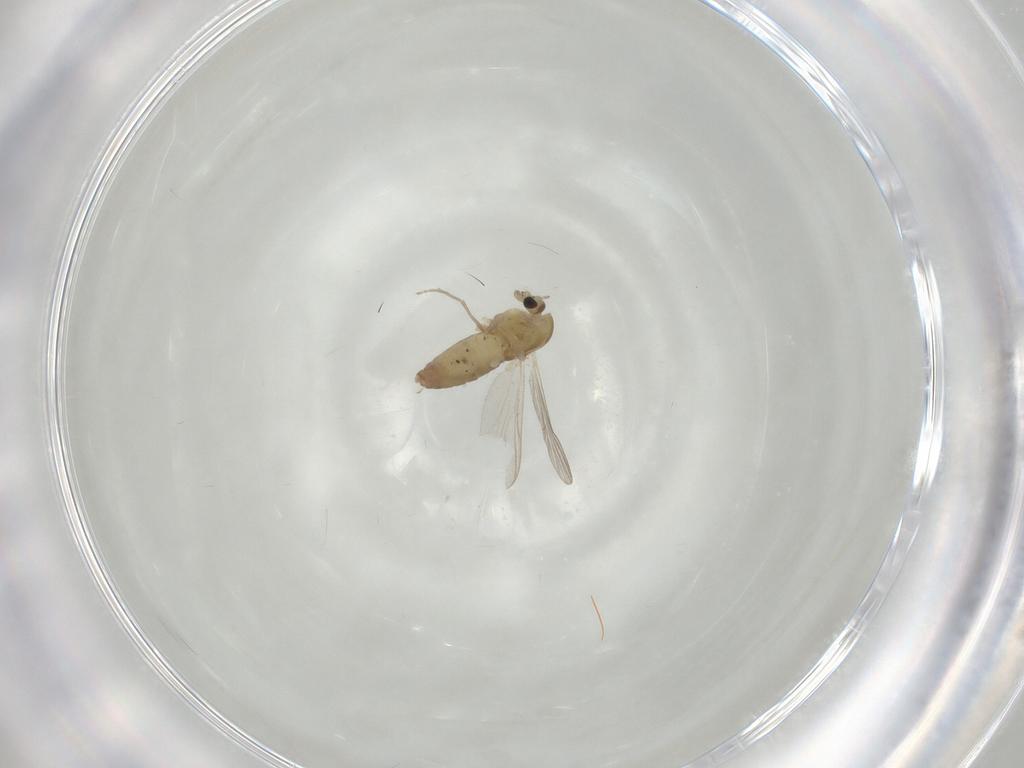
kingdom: Animalia
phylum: Arthropoda
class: Insecta
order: Diptera
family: Chironomidae
